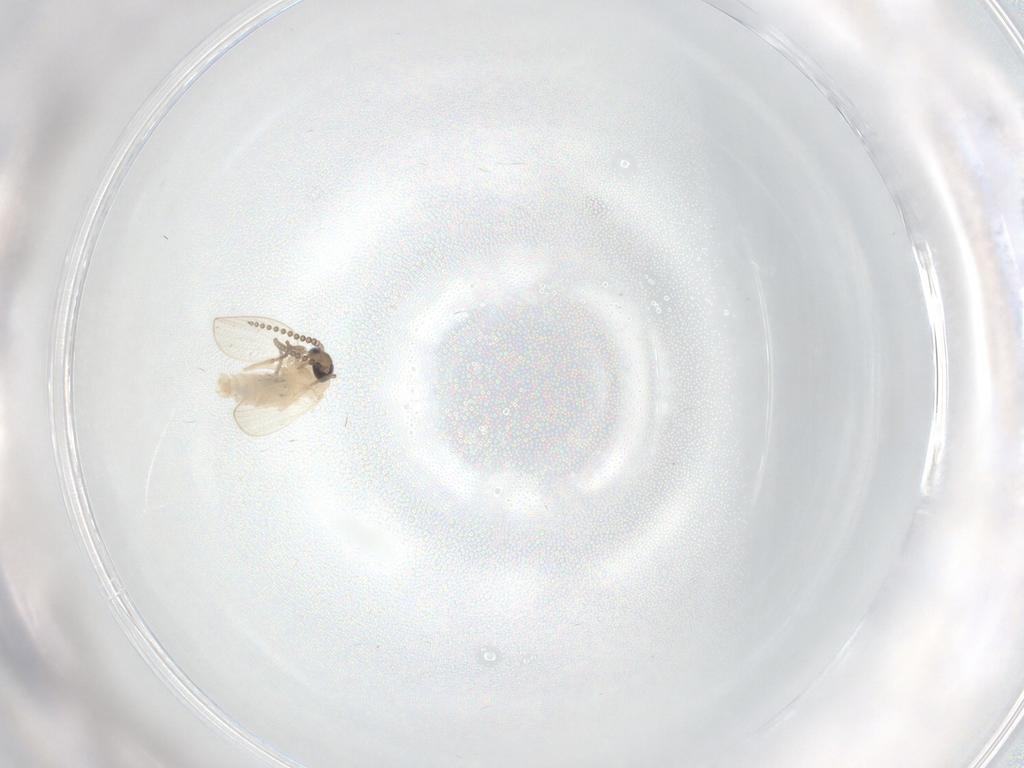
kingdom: Animalia
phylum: Arthropoda
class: Insecta
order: Diptera
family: Psychodidae
